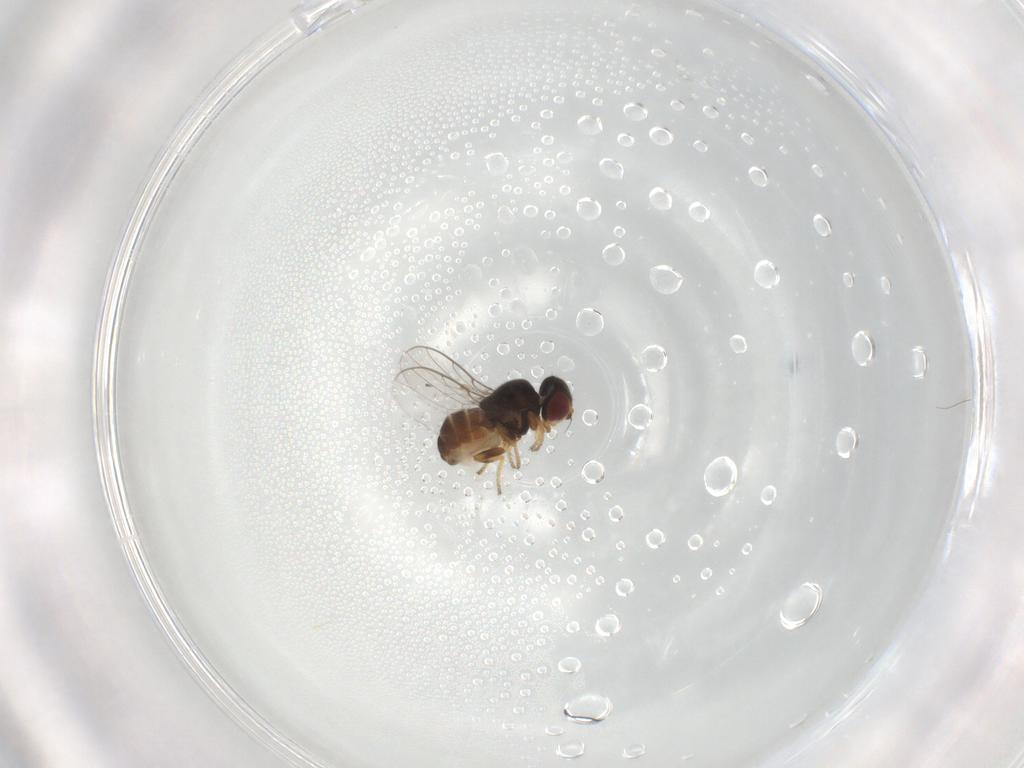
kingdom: Animalia
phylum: Arthropoda
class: Insecta
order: Diptera
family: Chloropidae
